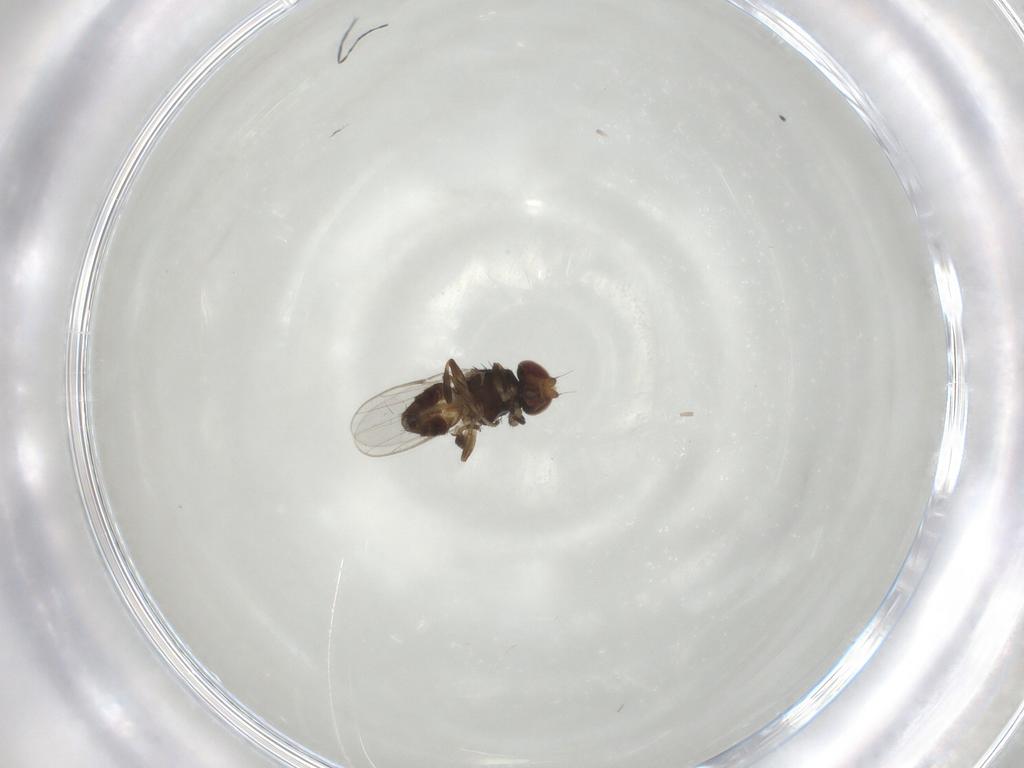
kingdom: Animalia
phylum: Arthropoda
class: Insecta
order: Diptera
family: Chloropidae
